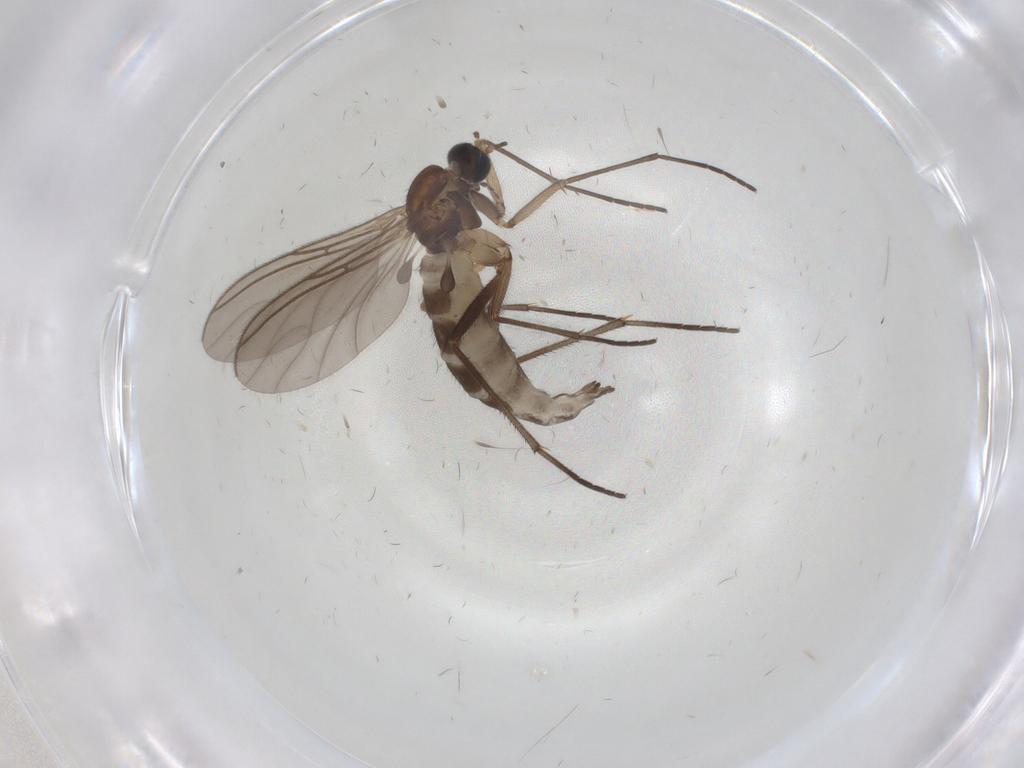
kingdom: Animalia
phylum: Arthropoda
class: Insecta
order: Diptera
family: Sciaridae
